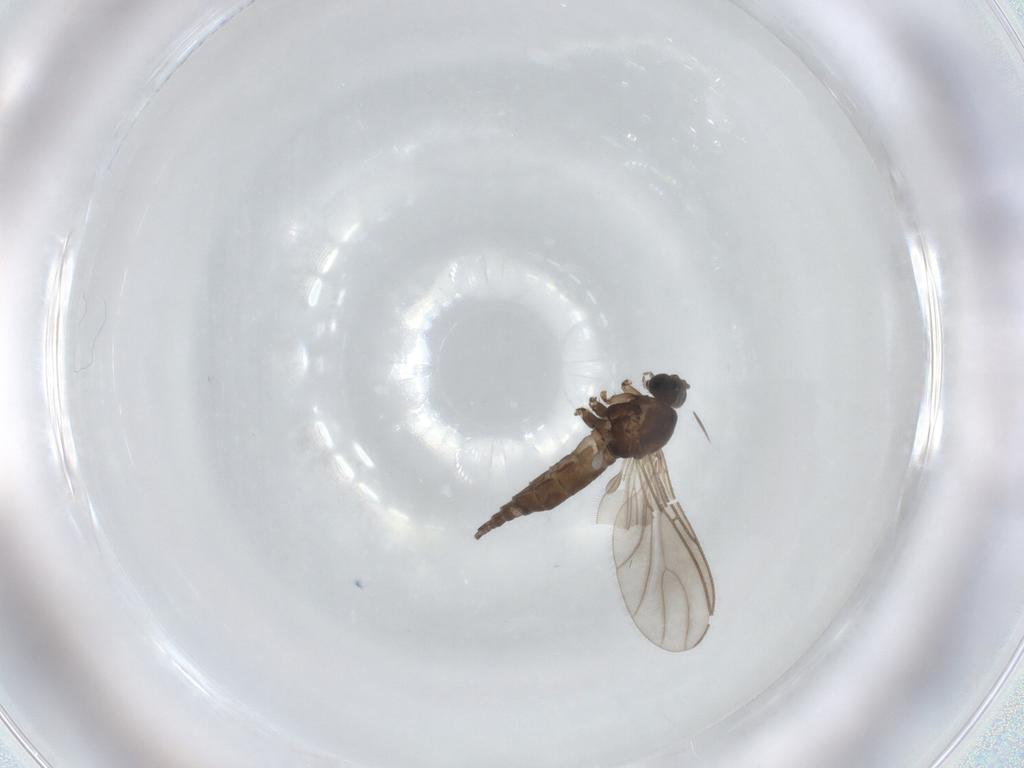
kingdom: Animalia
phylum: Arthropoda
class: Insecta
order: Diptera
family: Sciaridae
